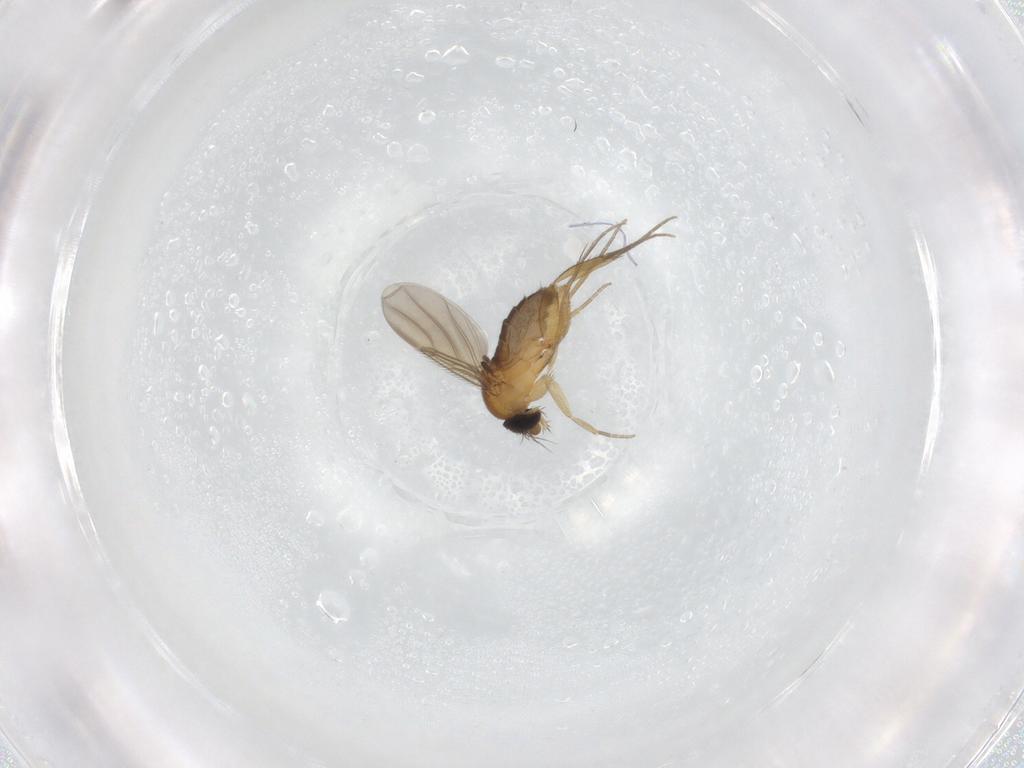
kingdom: Animalia
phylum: Arthropoda
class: Insecta
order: Diptera
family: Phoridae
